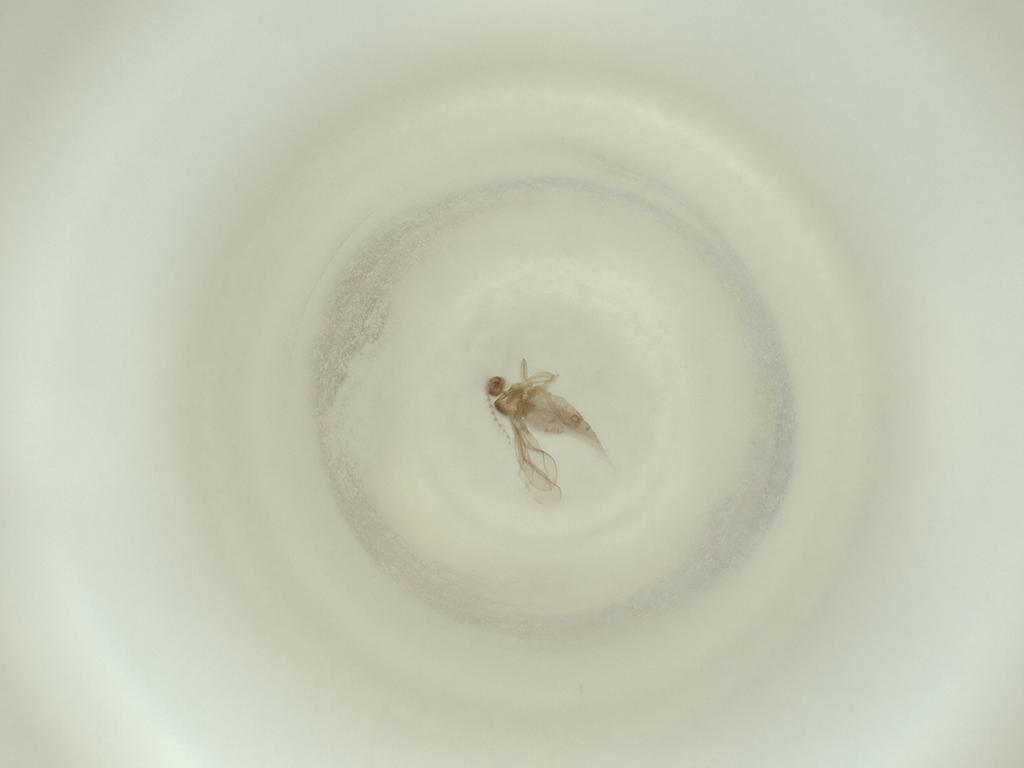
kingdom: Animalia
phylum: Arthropoda
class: Insecta
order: Diptera
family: Cecidomyiidae
